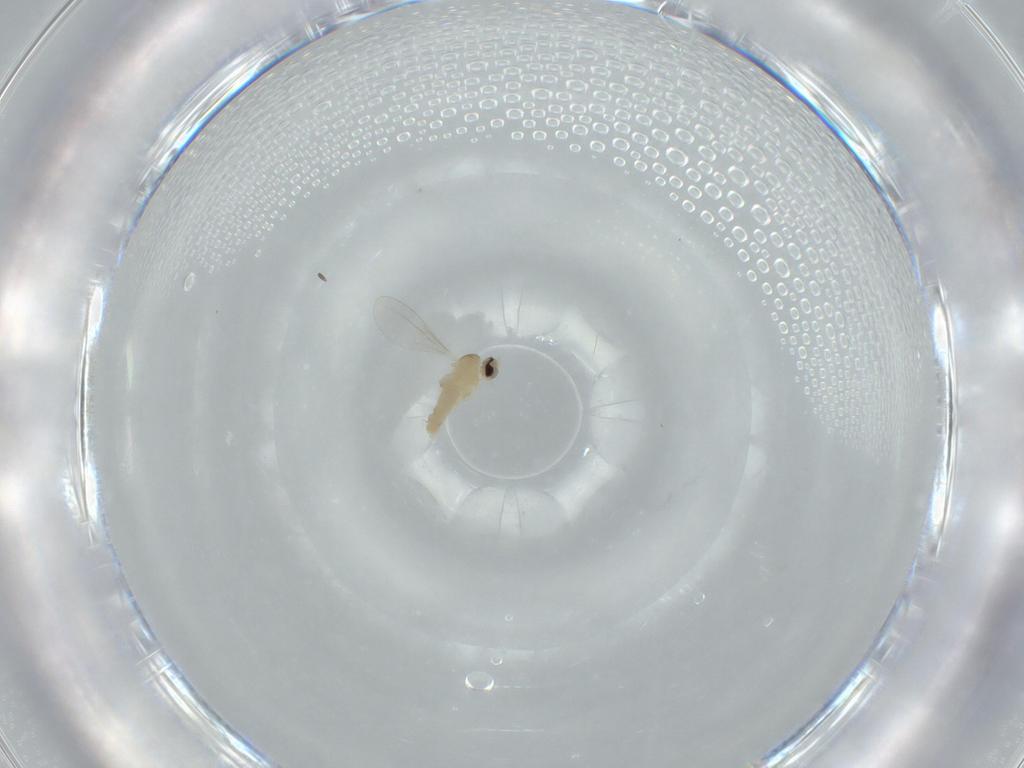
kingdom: Animalia
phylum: Arthropoda
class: Insecta
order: Diptera
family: Cecidomyiidae
